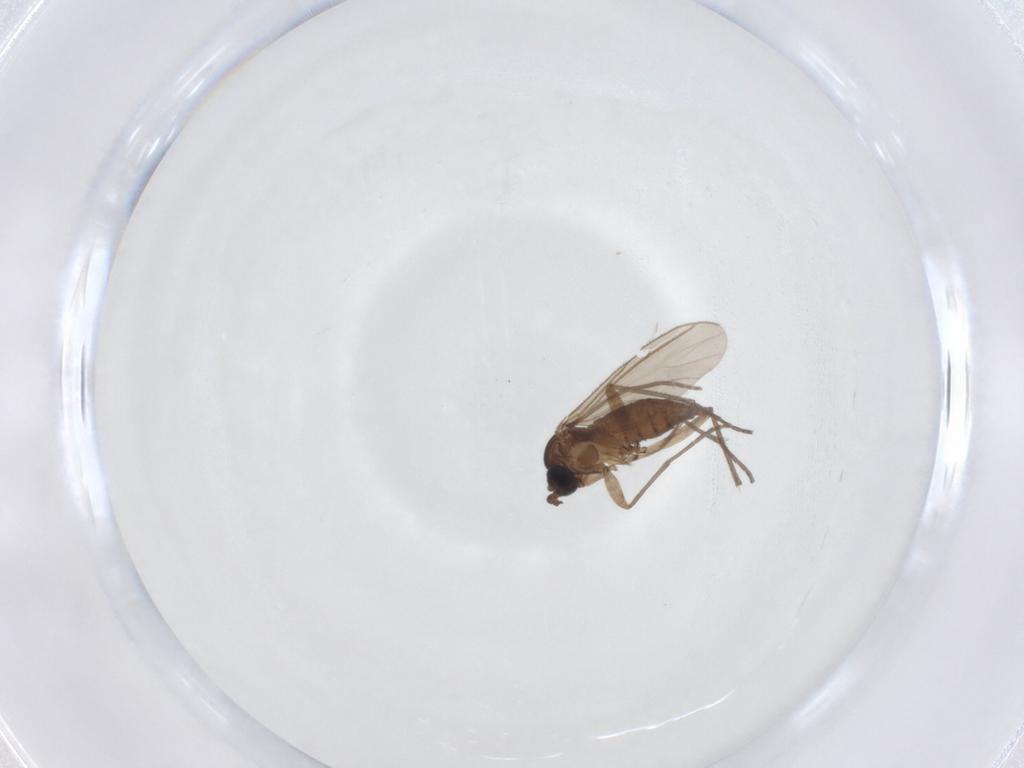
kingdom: Animalia
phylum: Arthropoda
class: Insecta
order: Diptera
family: Sciaridae
